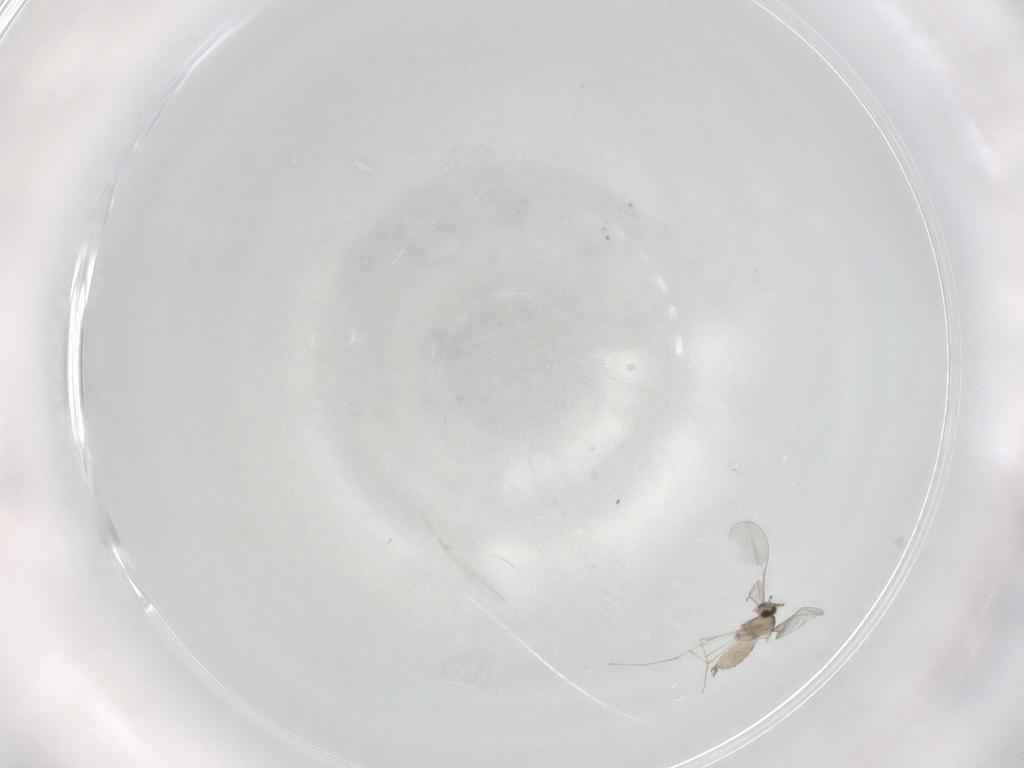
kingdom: Animalia
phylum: Arthropoda
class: Insecta
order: Diptera
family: Cecidomyiidae
